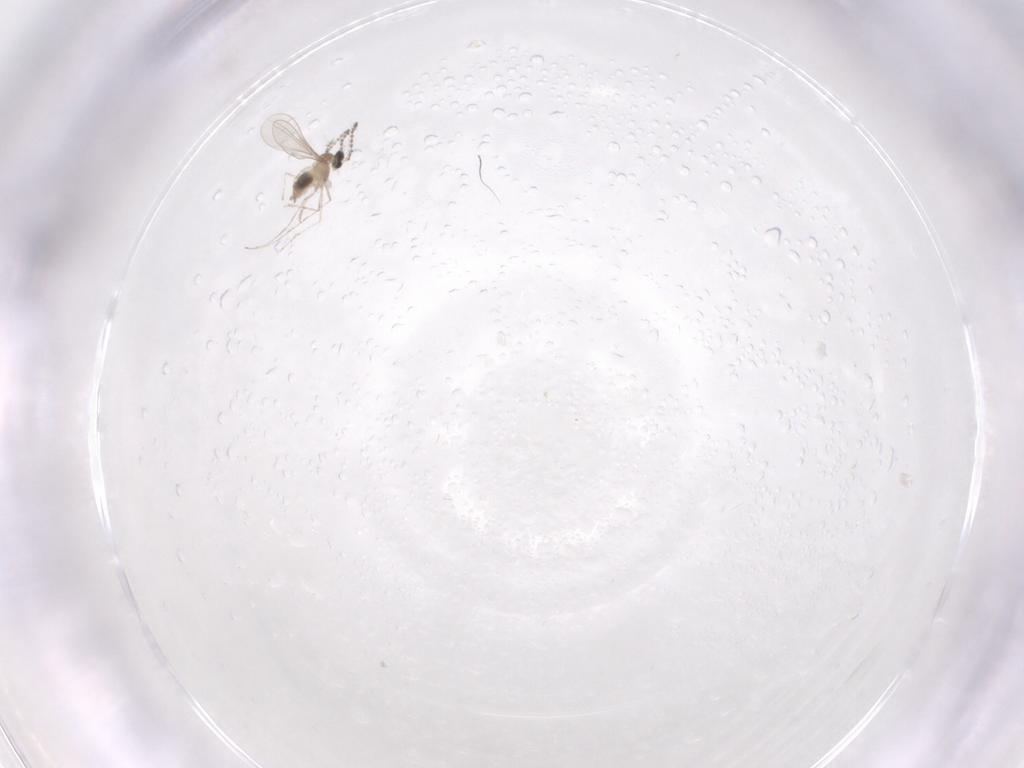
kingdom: Animalia
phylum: Arthropoda
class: Insecta
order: Diptera
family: Cecidomyiidae
